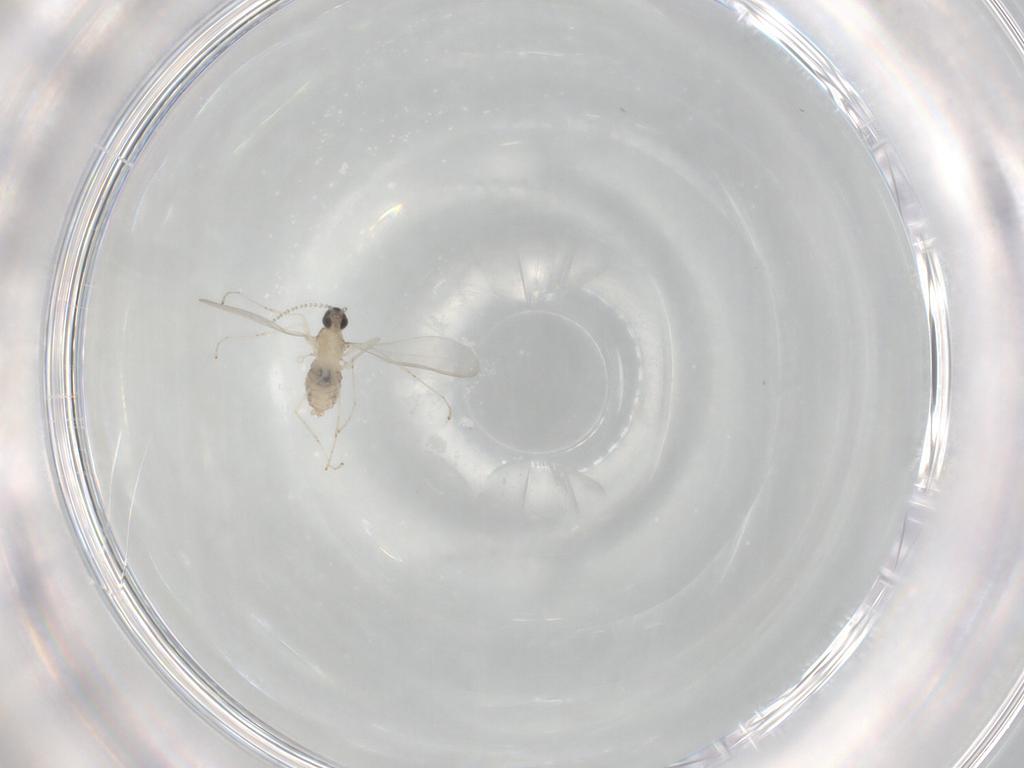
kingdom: Animalia
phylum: Arthropoda
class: Insecta
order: Diptera
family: Cecidomyiidae
